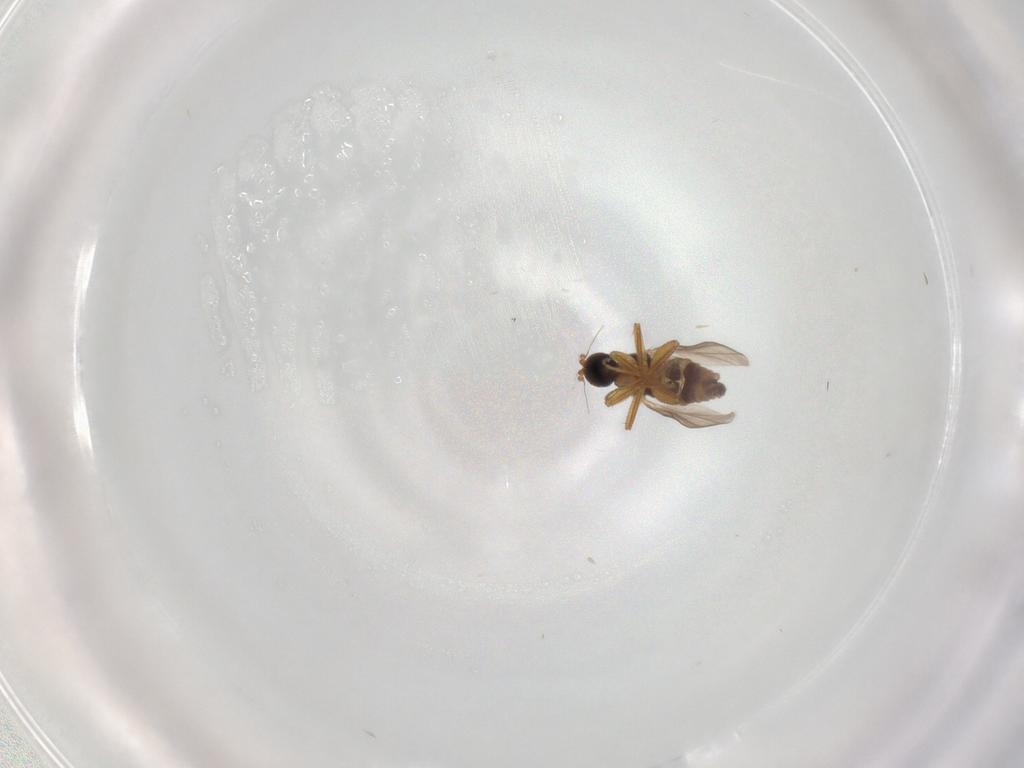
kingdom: Animalia
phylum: Arthropoda
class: Insecta
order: Diptera
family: Hybotidae
